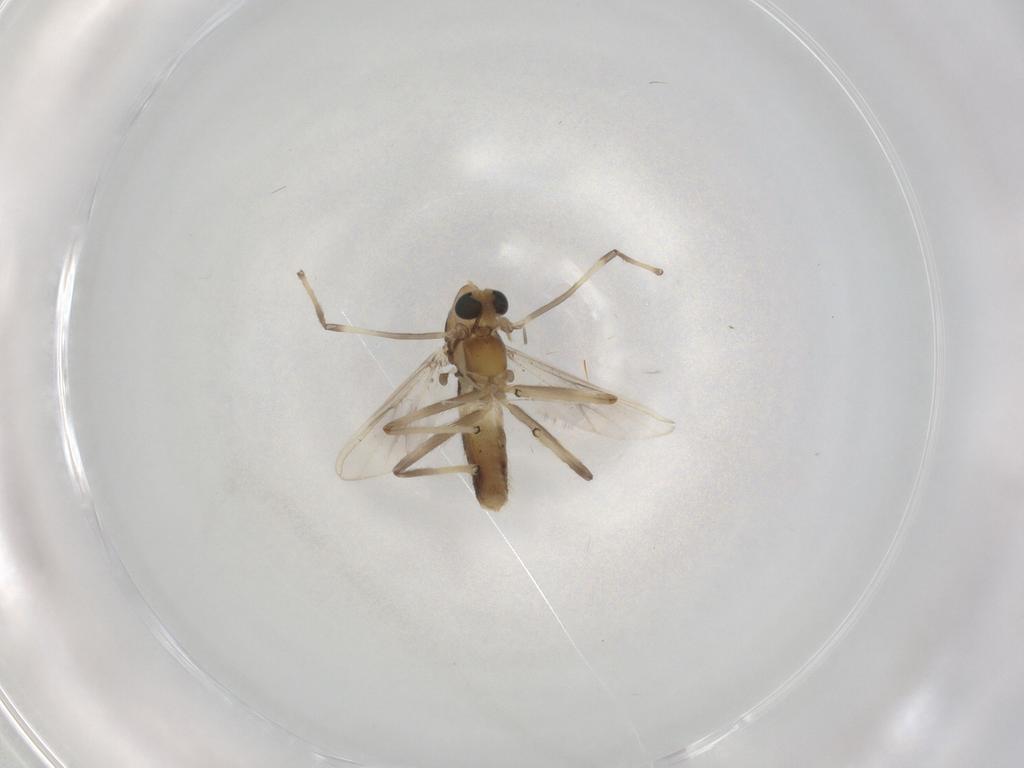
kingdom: Animalia
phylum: Arthropoda
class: Insecta
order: Diptera
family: Chironomidae
